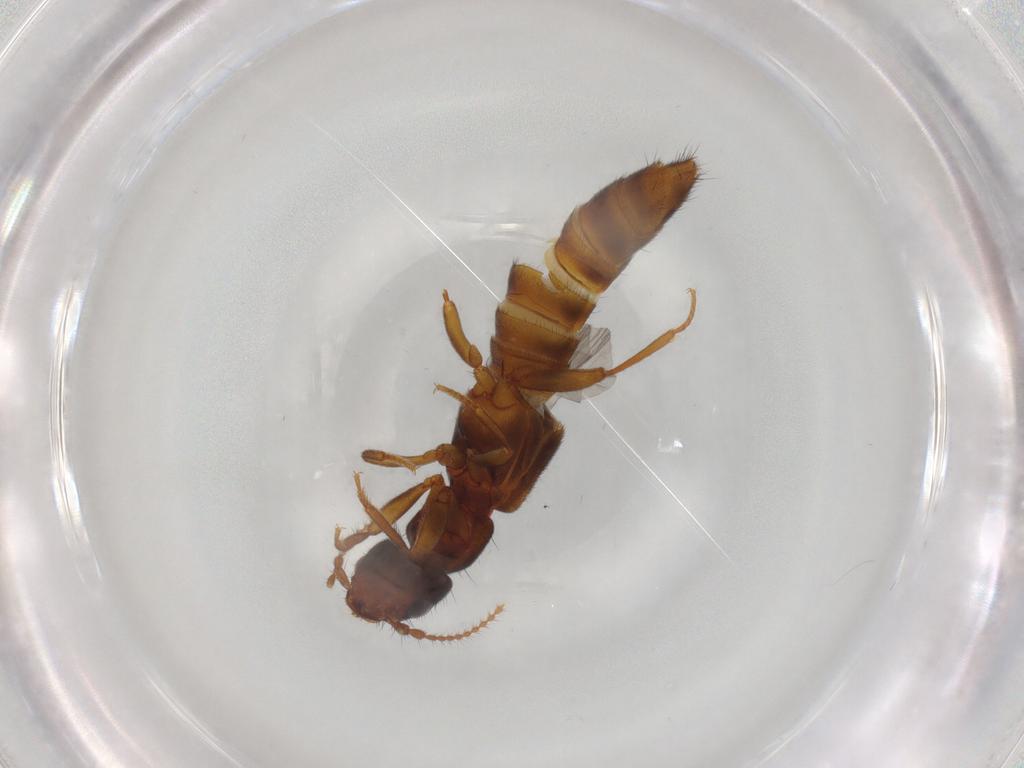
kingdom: Animalia
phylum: Arthropoda
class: Insecta
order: Coleoptera
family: Staphylinidae
